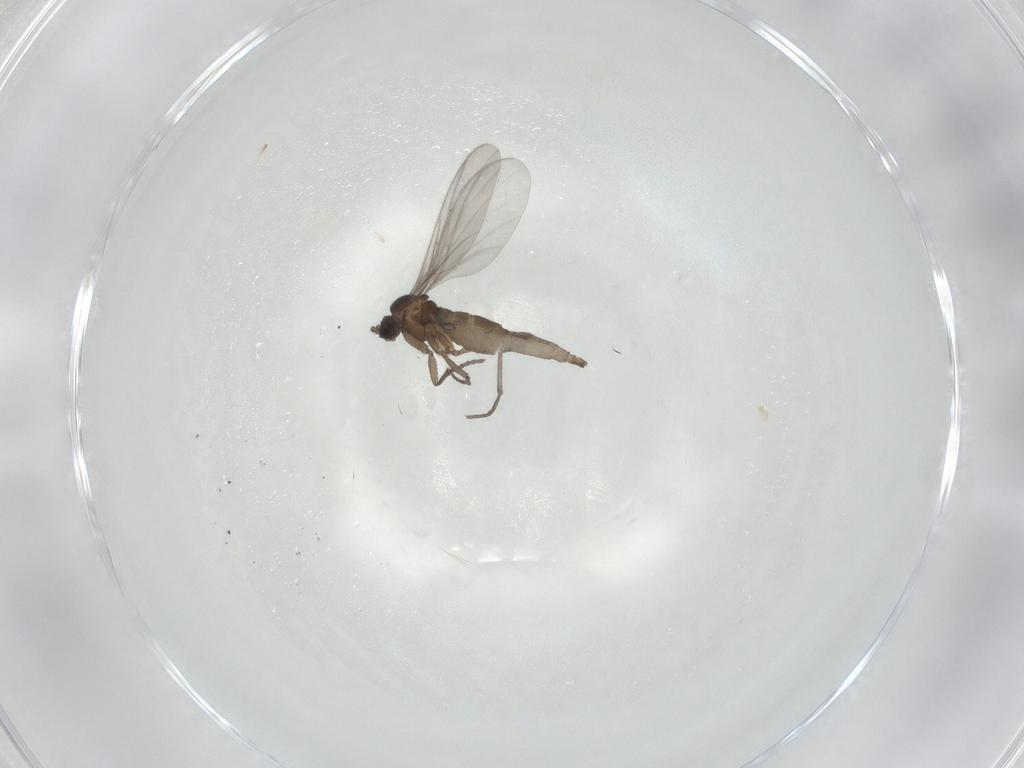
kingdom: Animalia
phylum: Arthropoda
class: Insecta
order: Diptera
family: Sciaridae
